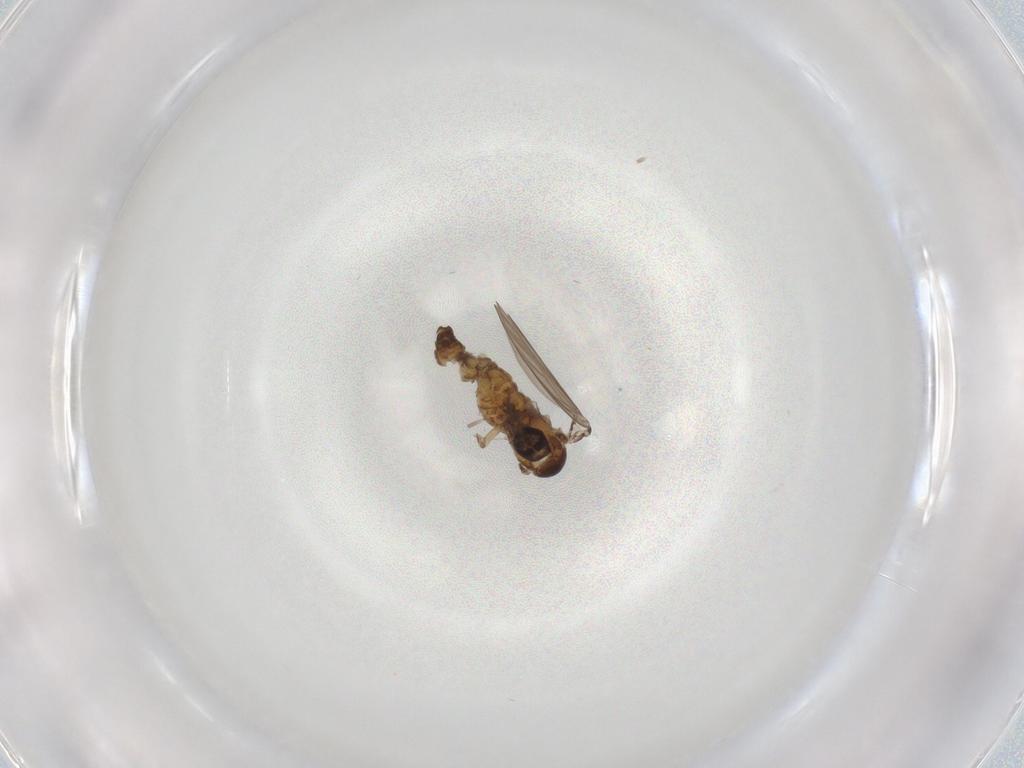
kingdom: Animalia
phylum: Arthropoda
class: Insecta
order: Diptera
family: Psychodidae
